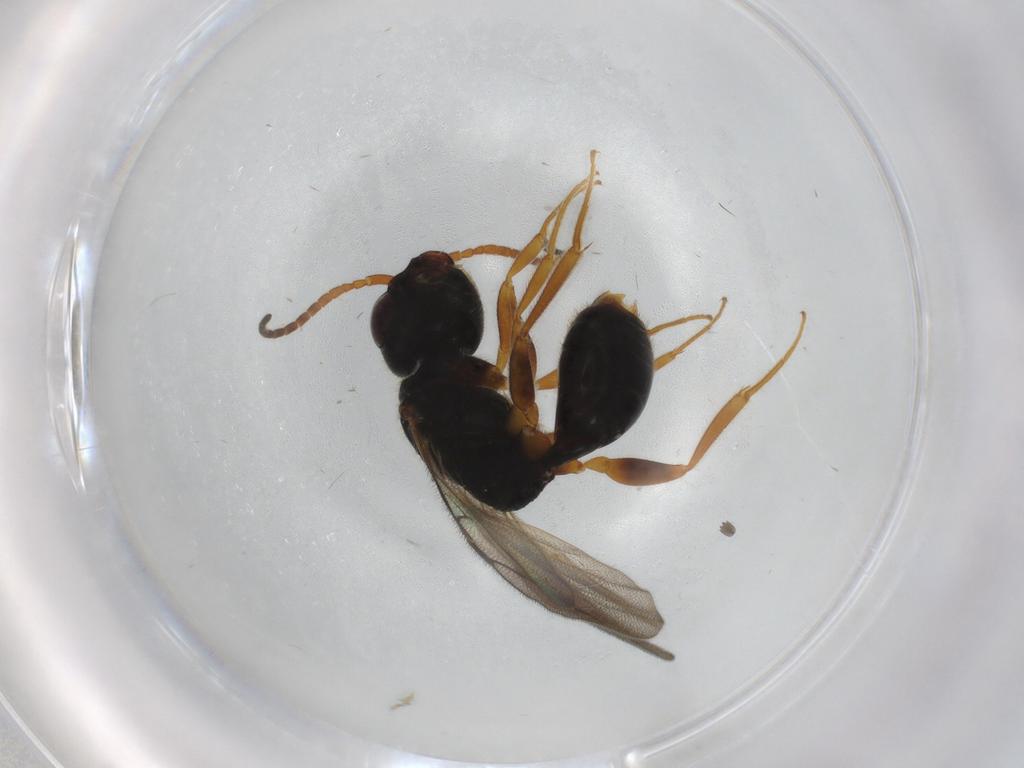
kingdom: Animalia
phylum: Arthropoda
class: Insecta
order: Hymenoptera
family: Bethylidae
